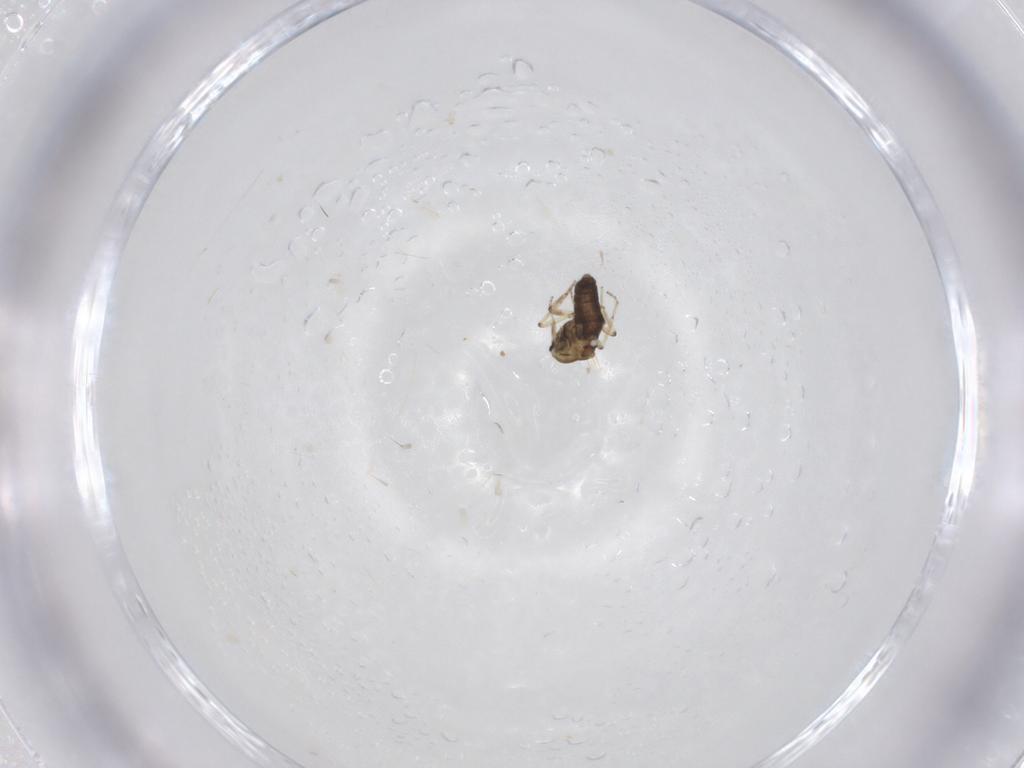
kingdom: Animalia
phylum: Arthropoda
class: Insecta
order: Diptera
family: Ceratopogonidae
